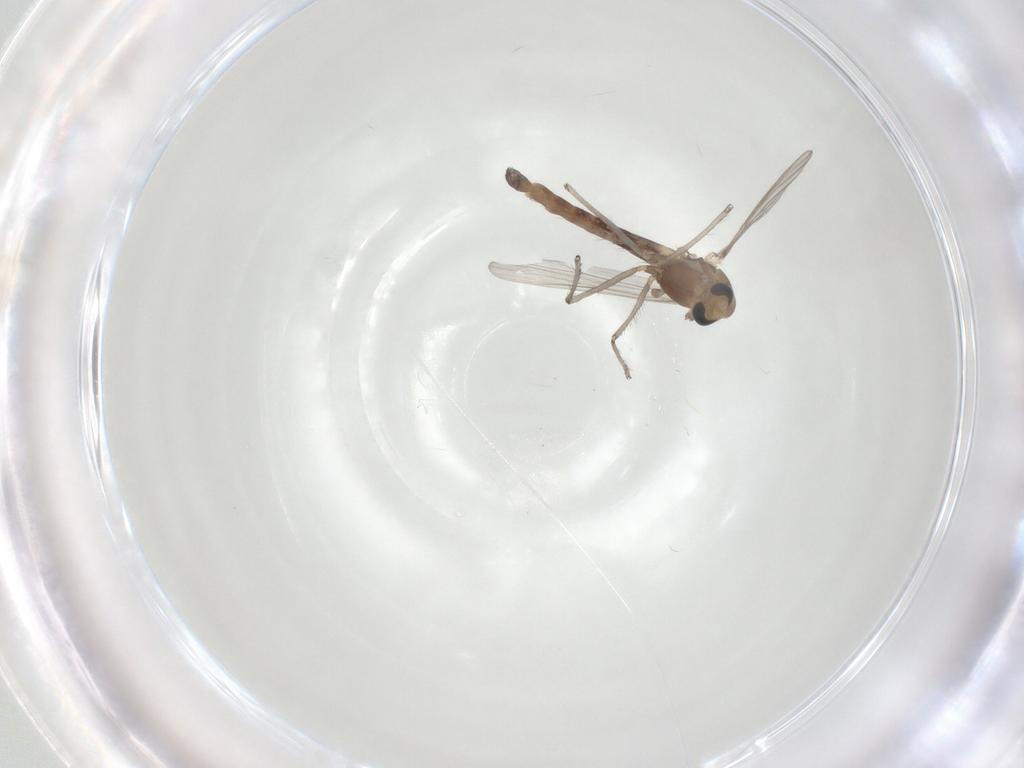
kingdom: Animalia
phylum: Arthropoda
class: Insecta
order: Diptera
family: Chironomidae
